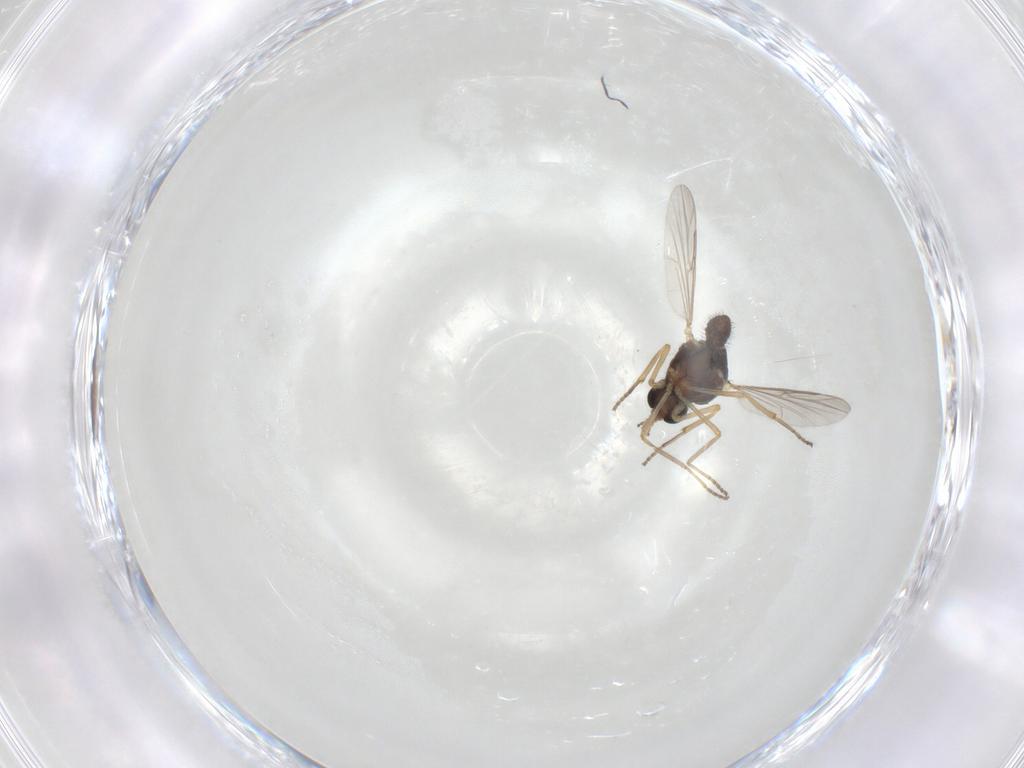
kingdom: Animalia
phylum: Arthropoda
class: Insecta
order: Diptera
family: Ceratopogonidae
